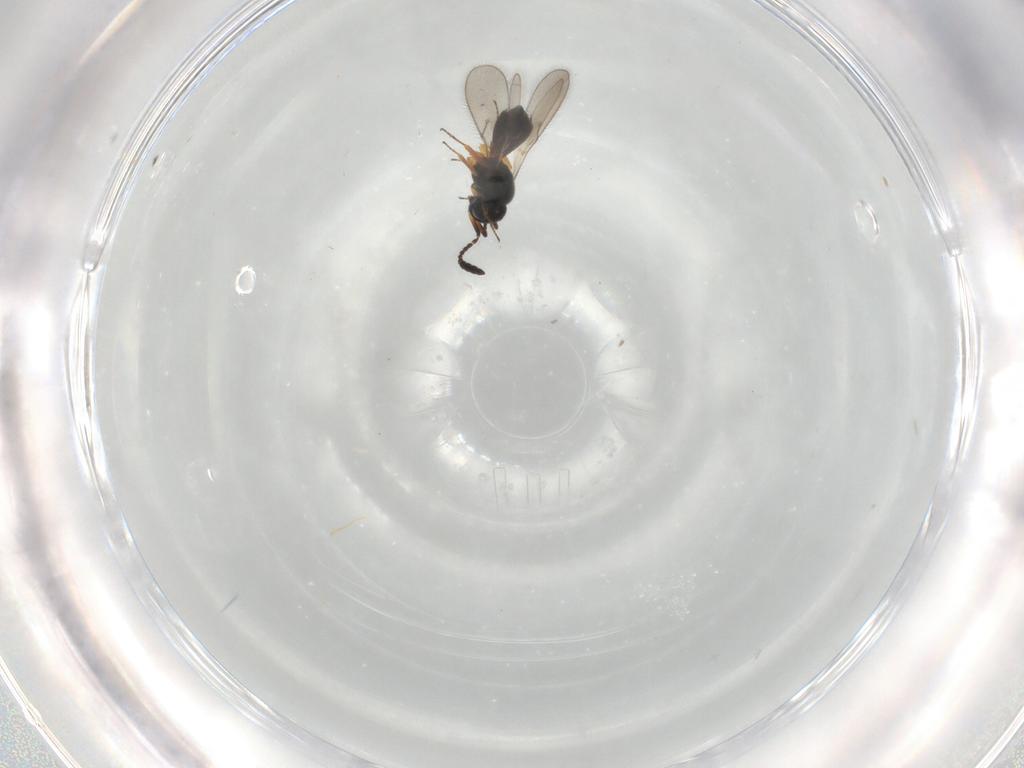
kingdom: Animalia
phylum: Arthropoda
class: Insecta
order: Hymenoptera
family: Scelionidae
